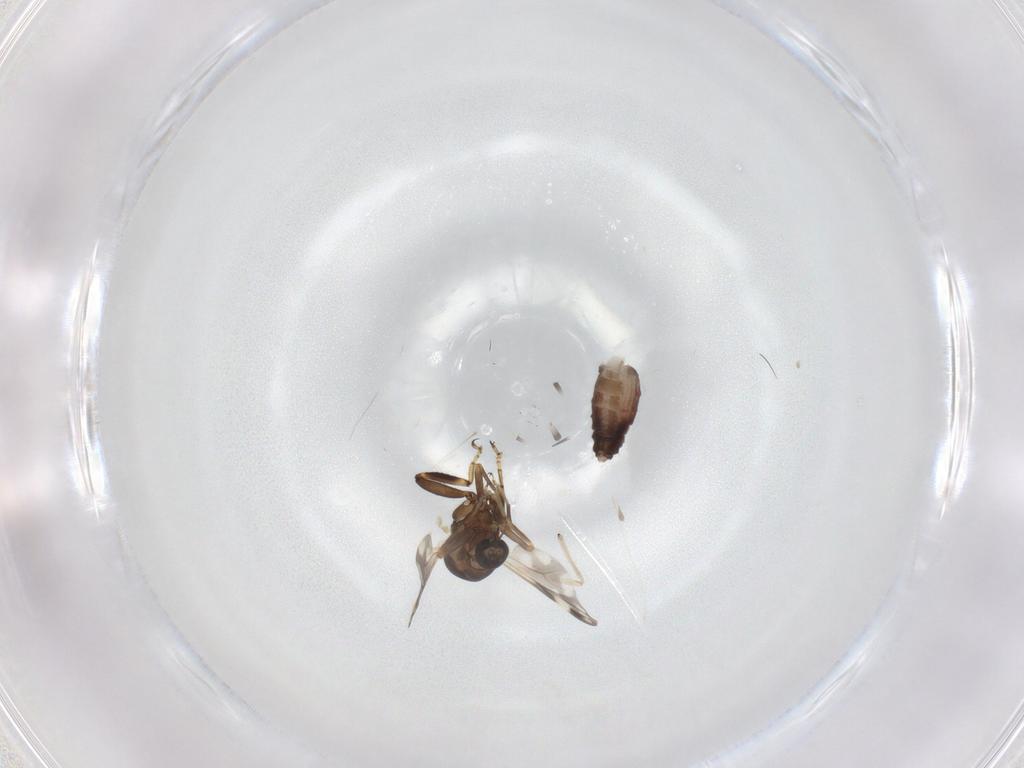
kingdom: Animalia
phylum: Arthropoda
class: Insecta
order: Diptera
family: Ceratopogonidae
